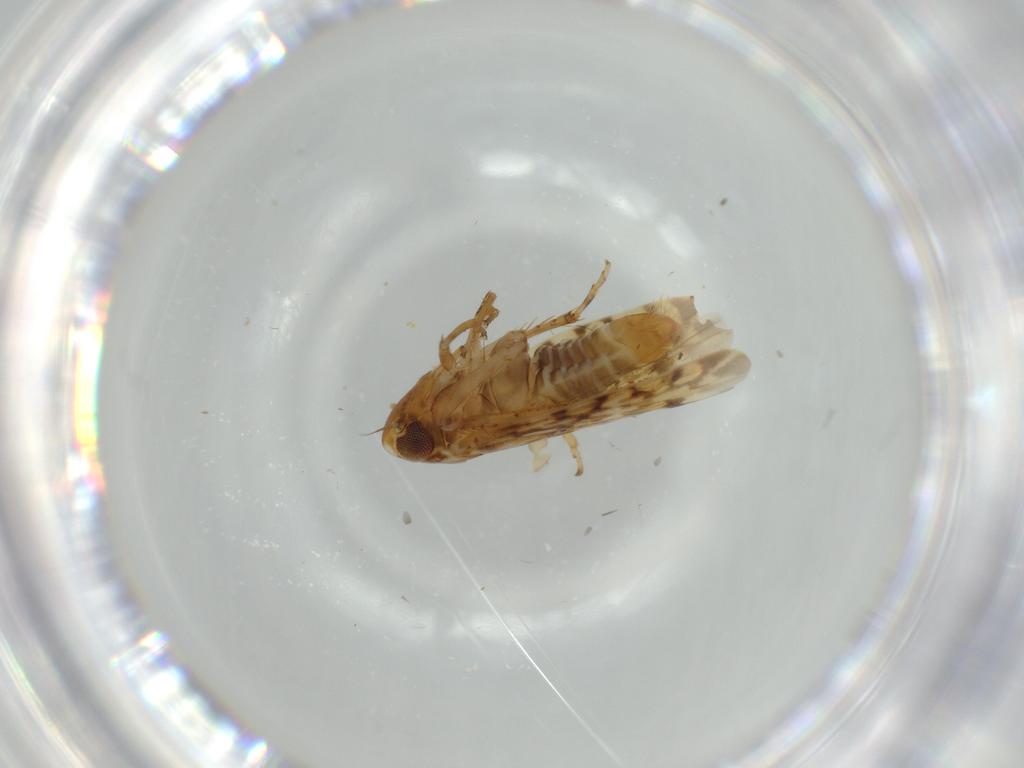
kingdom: Animalia
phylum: Arthropoda
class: Insecta
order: Hemiptera
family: Cicadellidae
